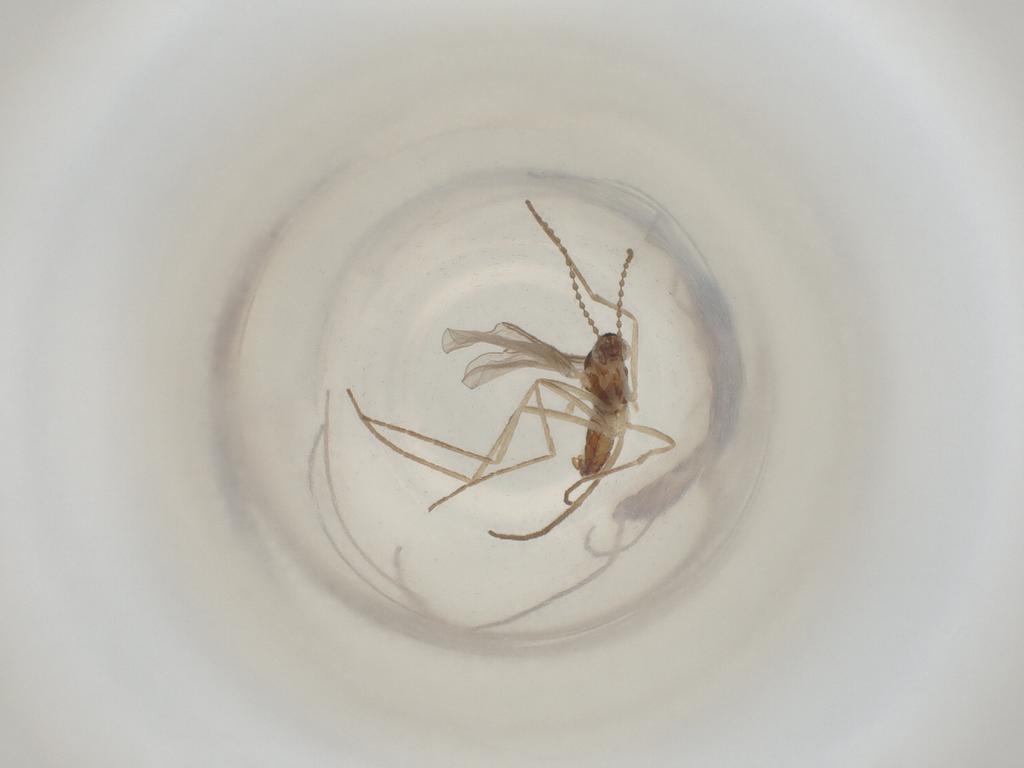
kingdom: Animalia
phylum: Arthropoda
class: Insecta
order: Diptera
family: Cecidomyiidae
